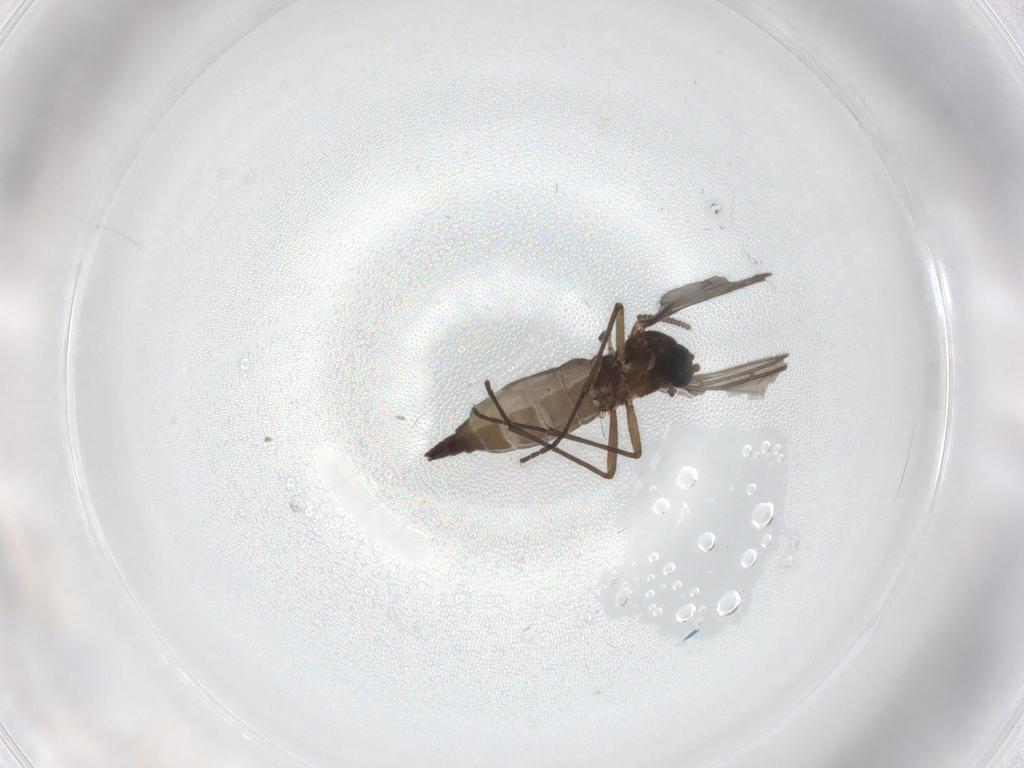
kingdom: Animalia
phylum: Arthropoda
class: Insecta
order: Diptera
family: Sciaridae
